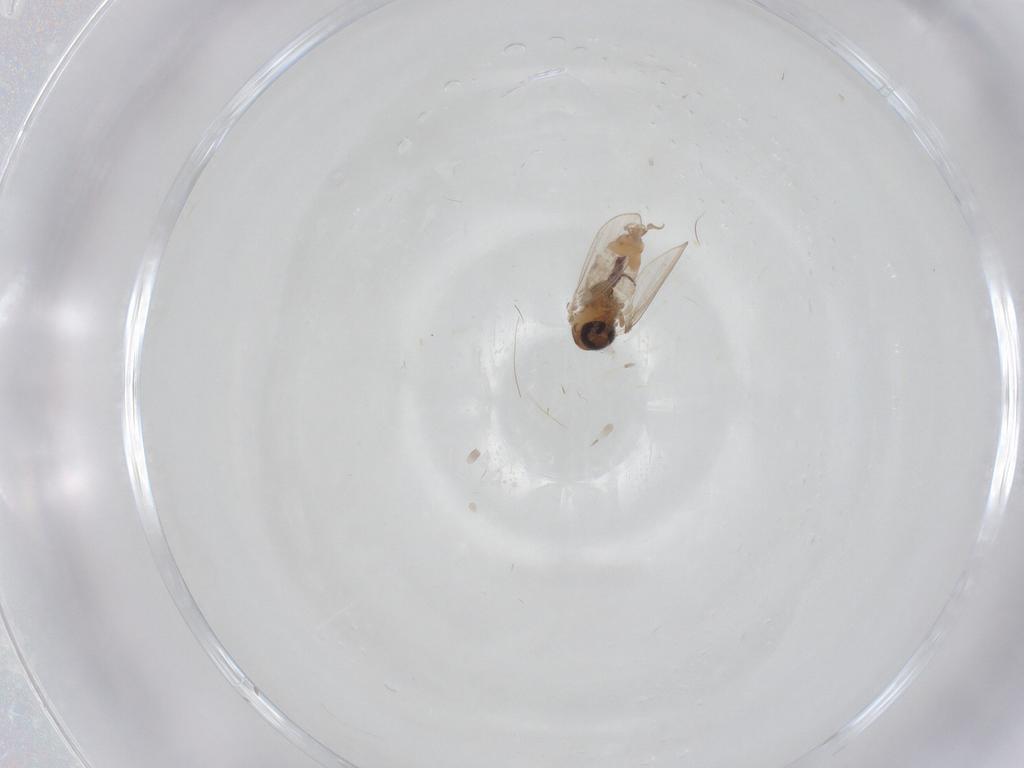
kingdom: Animalia
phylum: Arthropoda
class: Insecta
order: Diptera
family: Psychodidae
